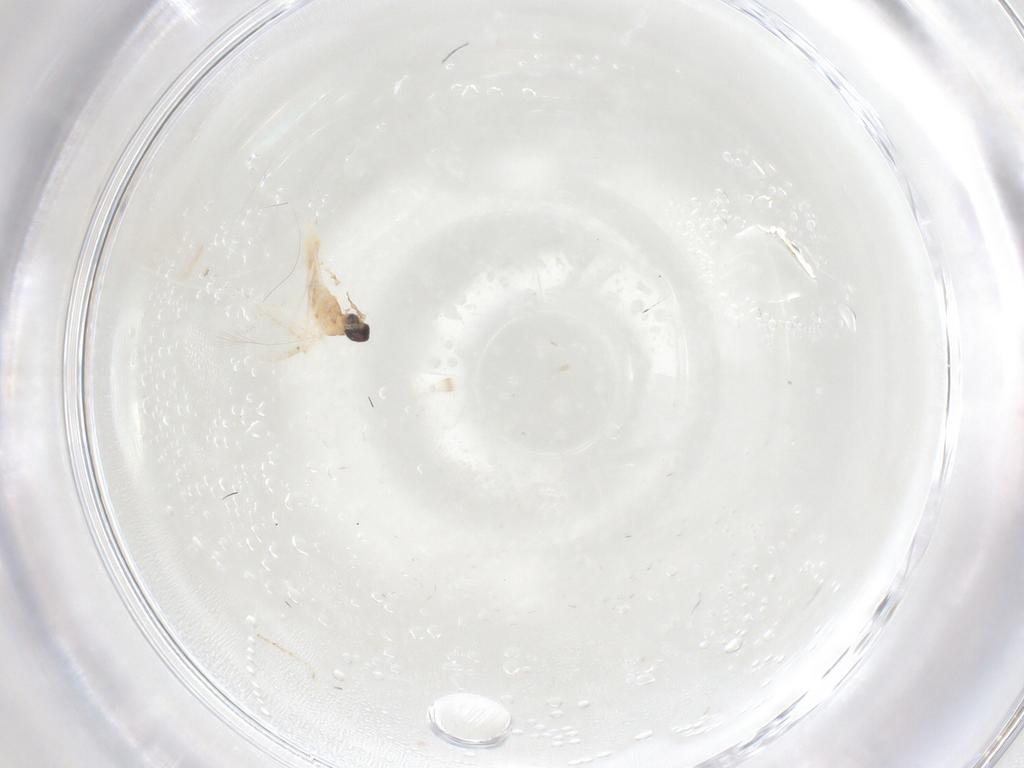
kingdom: Animalia
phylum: Arthropoda
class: Insecta
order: Diptera
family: Cecidomyiidae
